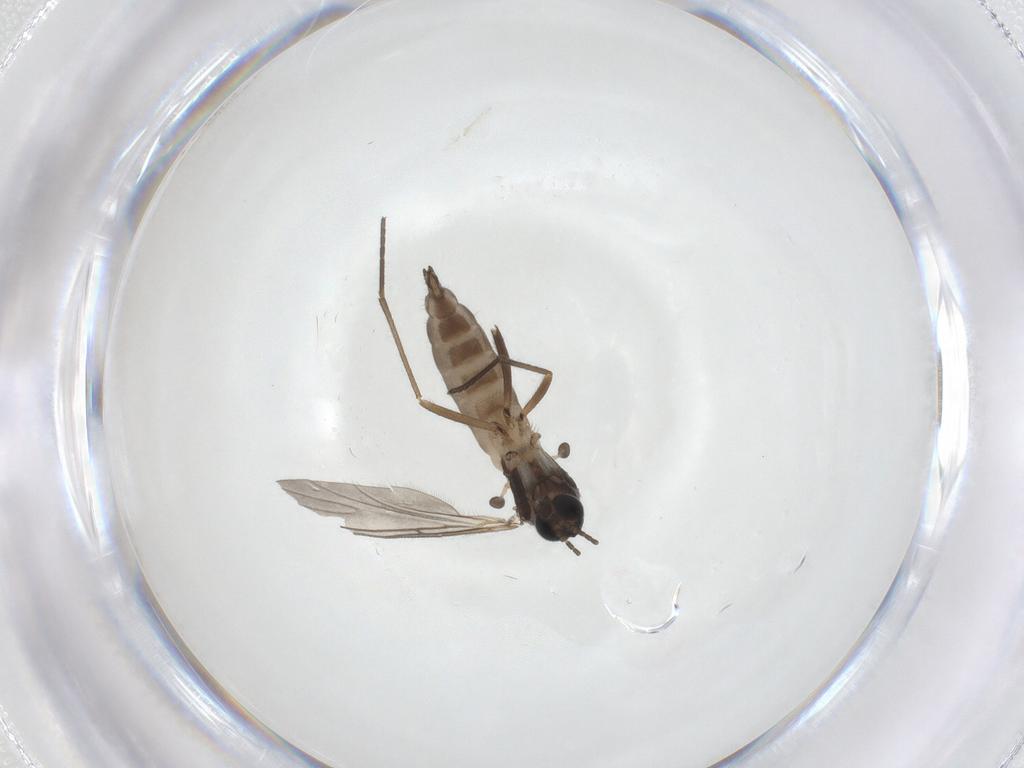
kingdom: Animalia
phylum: Arthropoda
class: Insecta
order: Diptera
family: Sciaridae
